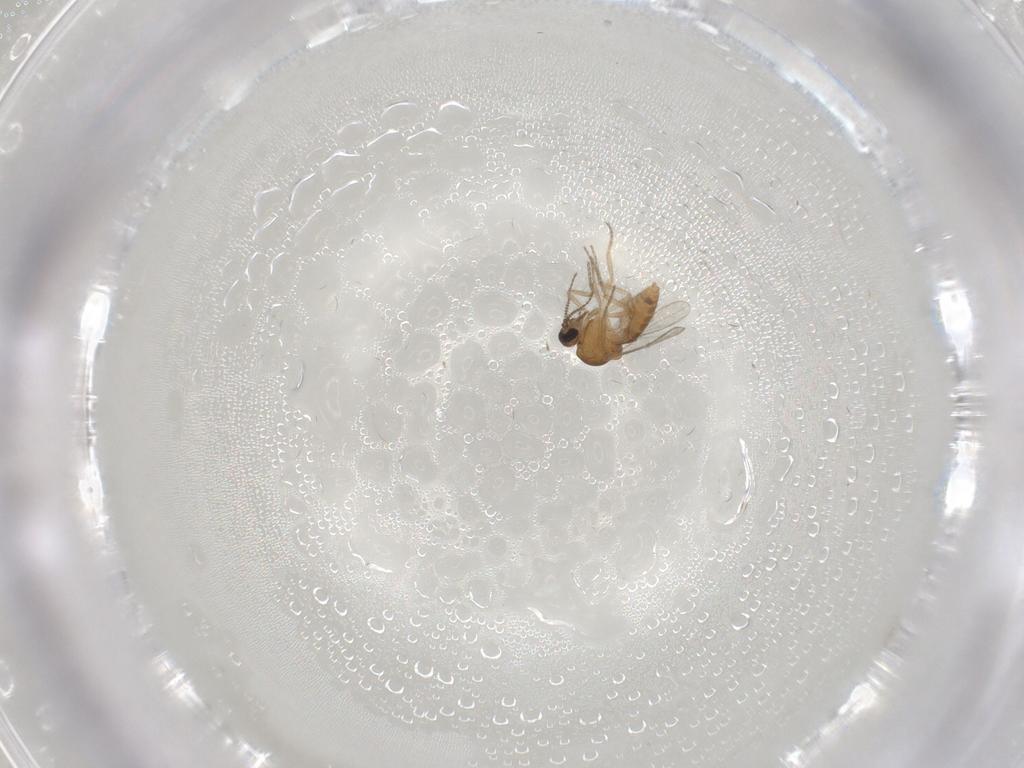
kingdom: Animalia
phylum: Arthropoda
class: Insecta
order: Diptera
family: Ceratopogonidae
